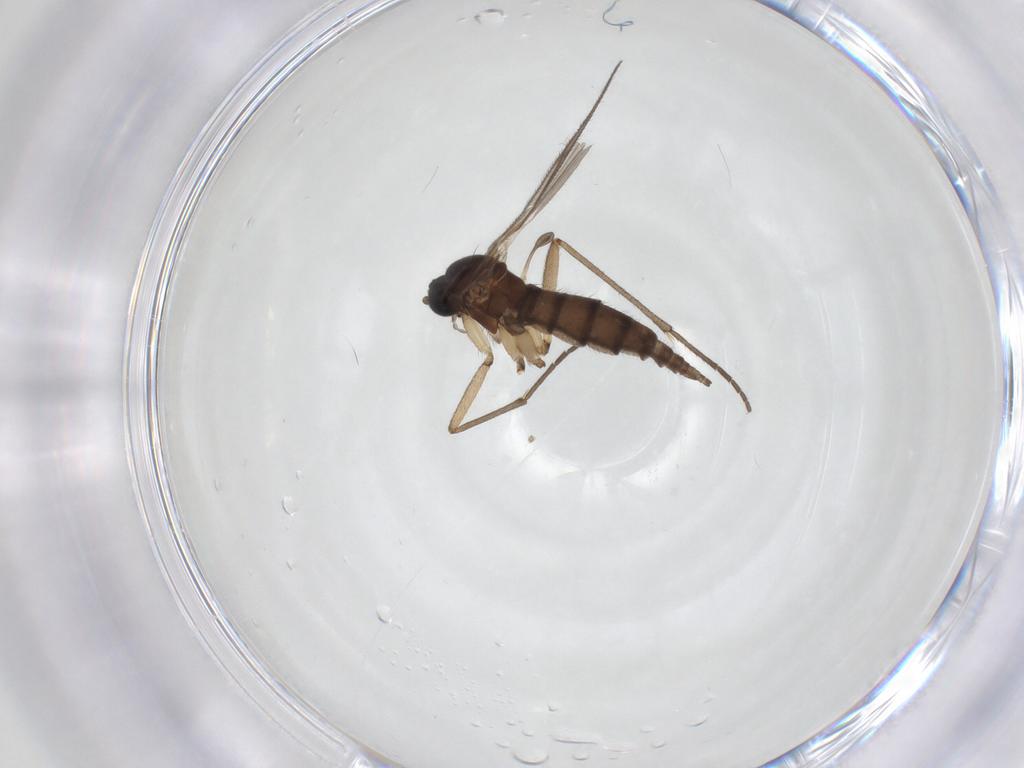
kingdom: Animalia
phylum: Arthropoda
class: Insecta
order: Diptera
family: Sciaridae
